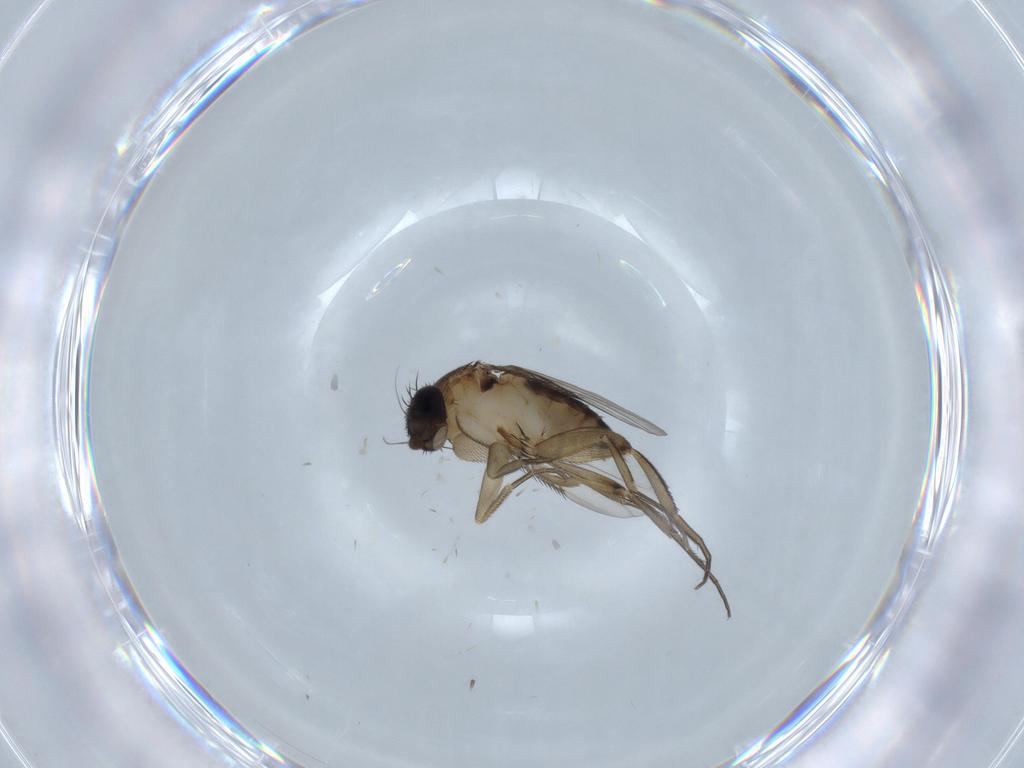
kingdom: Animalia
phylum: Arthropoda
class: Insecta
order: Diptera
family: Phoridae
